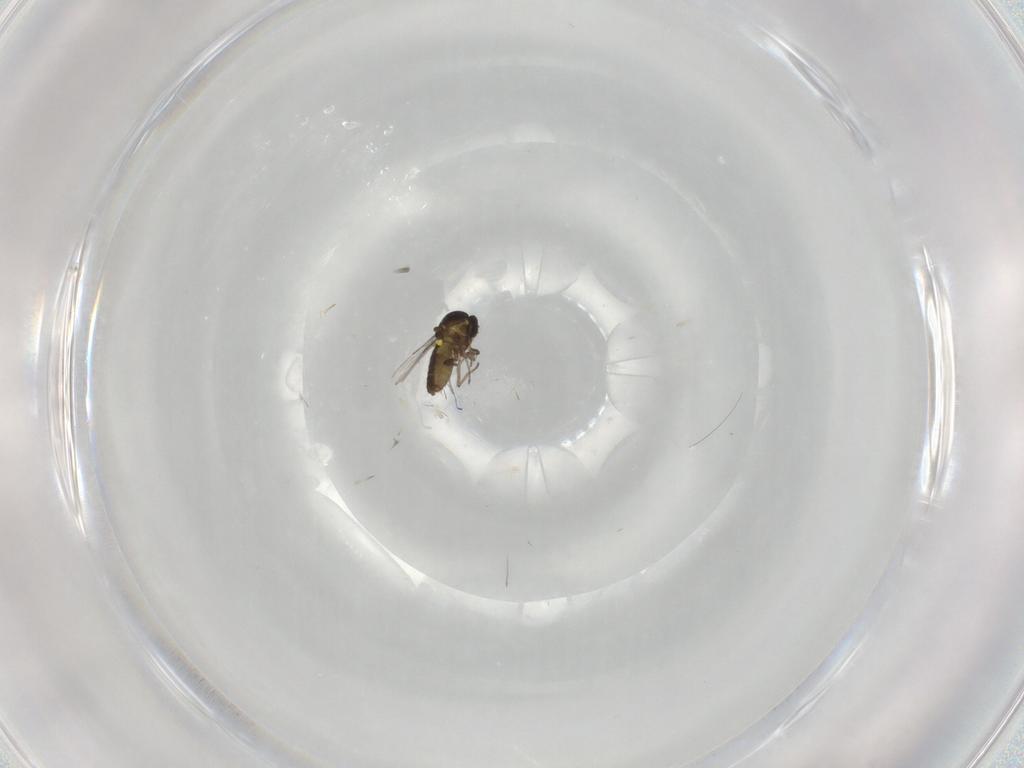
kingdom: Animalia
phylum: Arthropoda
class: Insecta
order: Diptera
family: Ceratopogonidae
